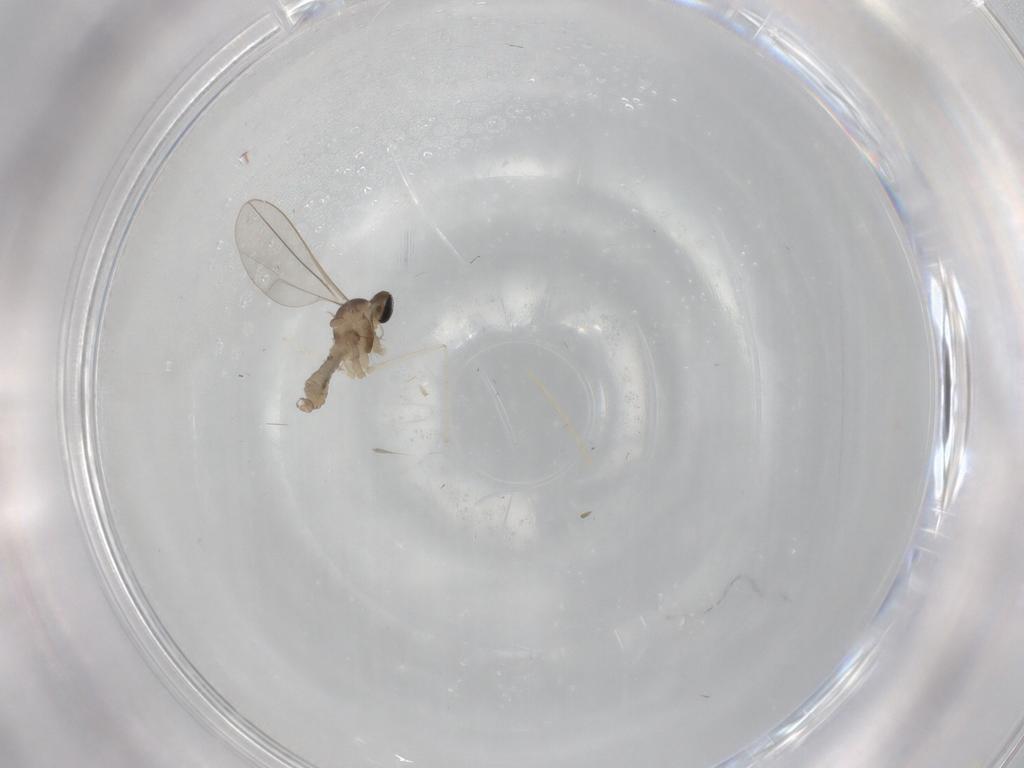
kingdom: Animalia
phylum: Arthropoda
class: Insecta
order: Diptera
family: Cecidomyiidae
